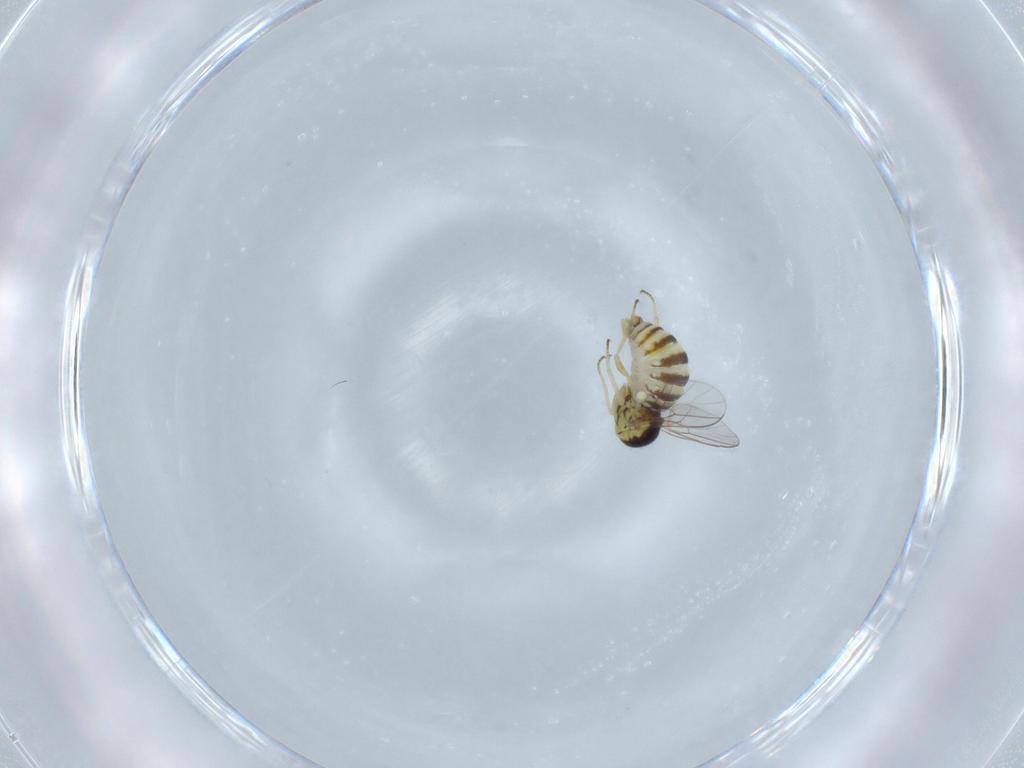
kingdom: Animalia
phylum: Arthropoda
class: Insecta
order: Diptera
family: Bombyliidae
